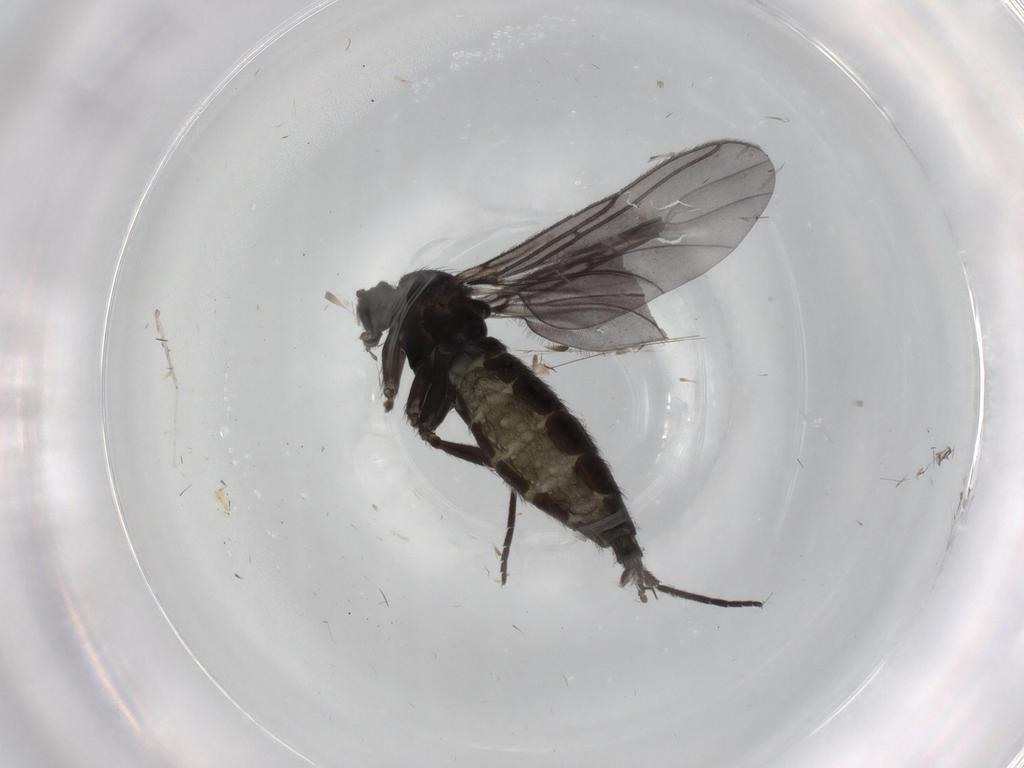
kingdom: Animalia
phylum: Arthropoda
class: Insecta
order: Diptera
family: Sciaridae
